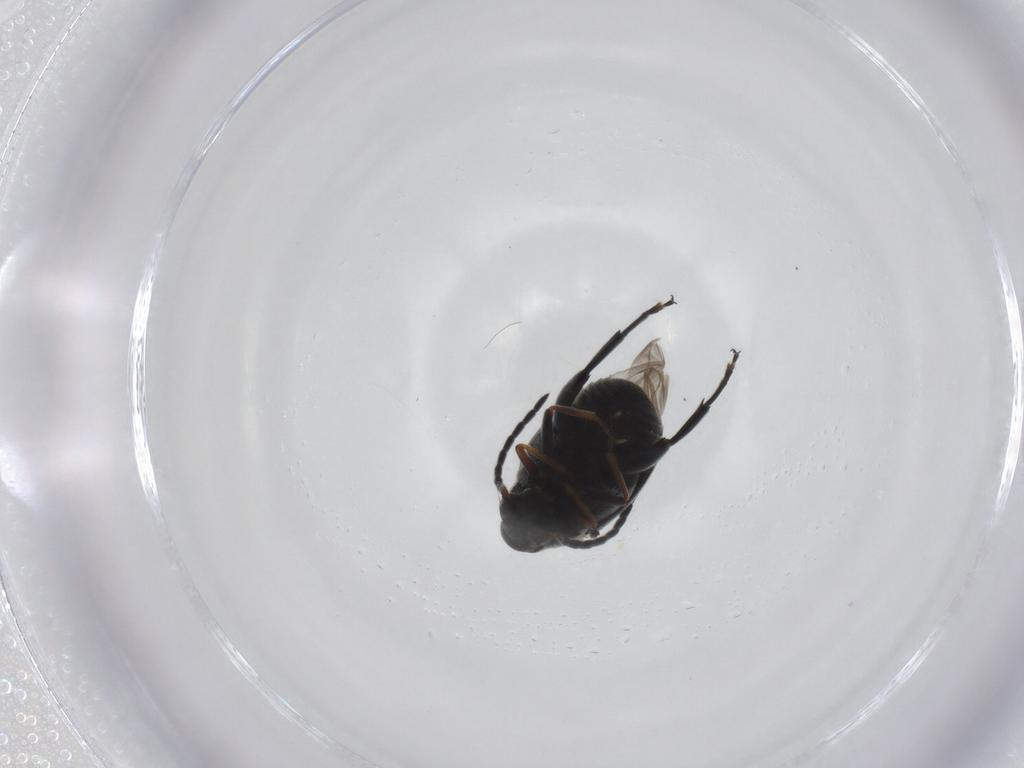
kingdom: Animalia
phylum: Arthropoda
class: Insecta
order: Coleoptera
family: Chrysomelidae
